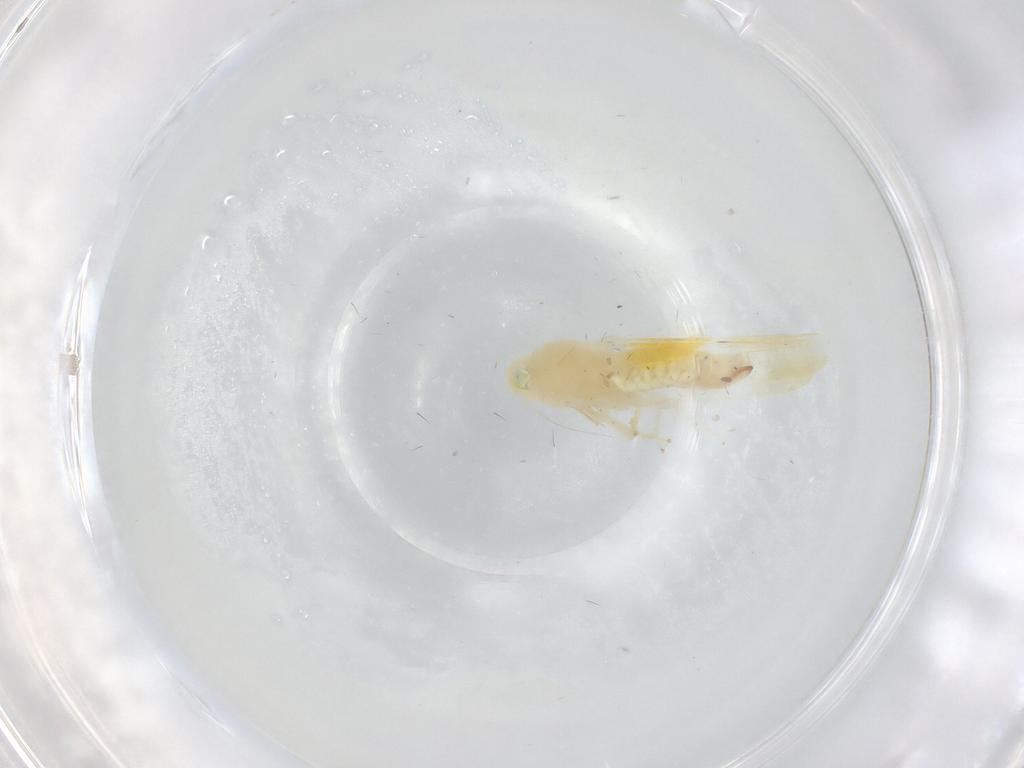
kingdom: Animalia
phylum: Arthropoda
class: Insecta
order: Hemiptera
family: Cicadellidae
